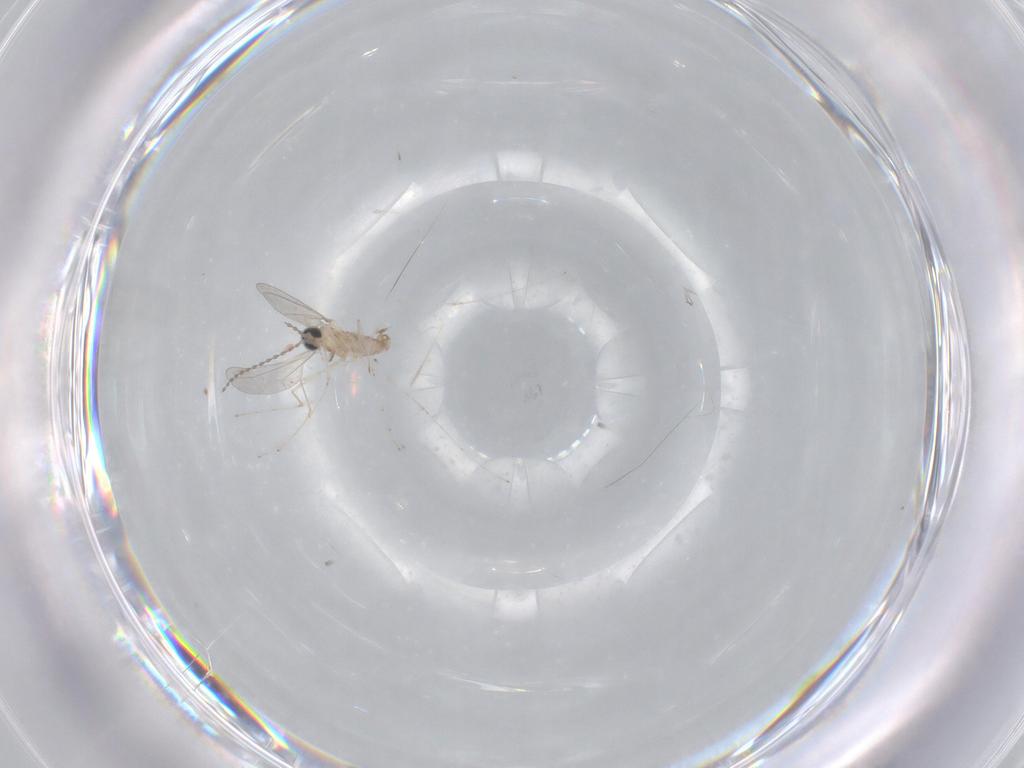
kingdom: Animalia
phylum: Arthropoda
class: Insecta
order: Diptera
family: Cecidomyiidae
